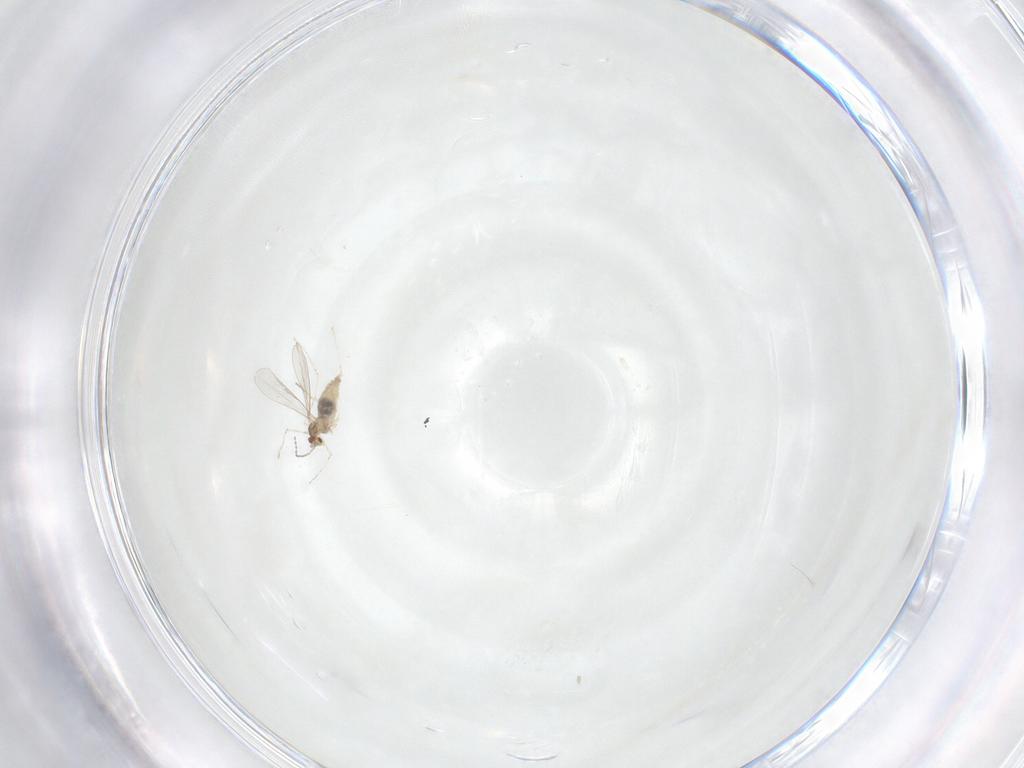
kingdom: Animalia
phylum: Arthropoda
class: Insecta
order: Diptera
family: Cecidomyiidae
